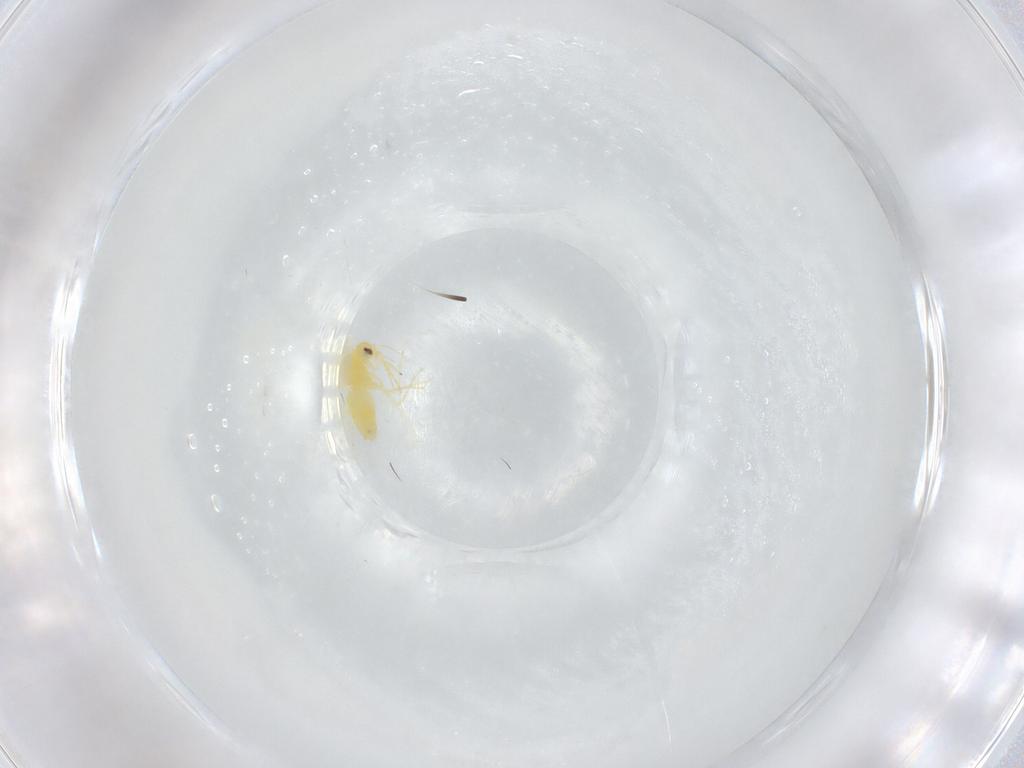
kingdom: Animalia
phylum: Arthropoda
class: Insecta
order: Hemiptera
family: Aleyrodidae
